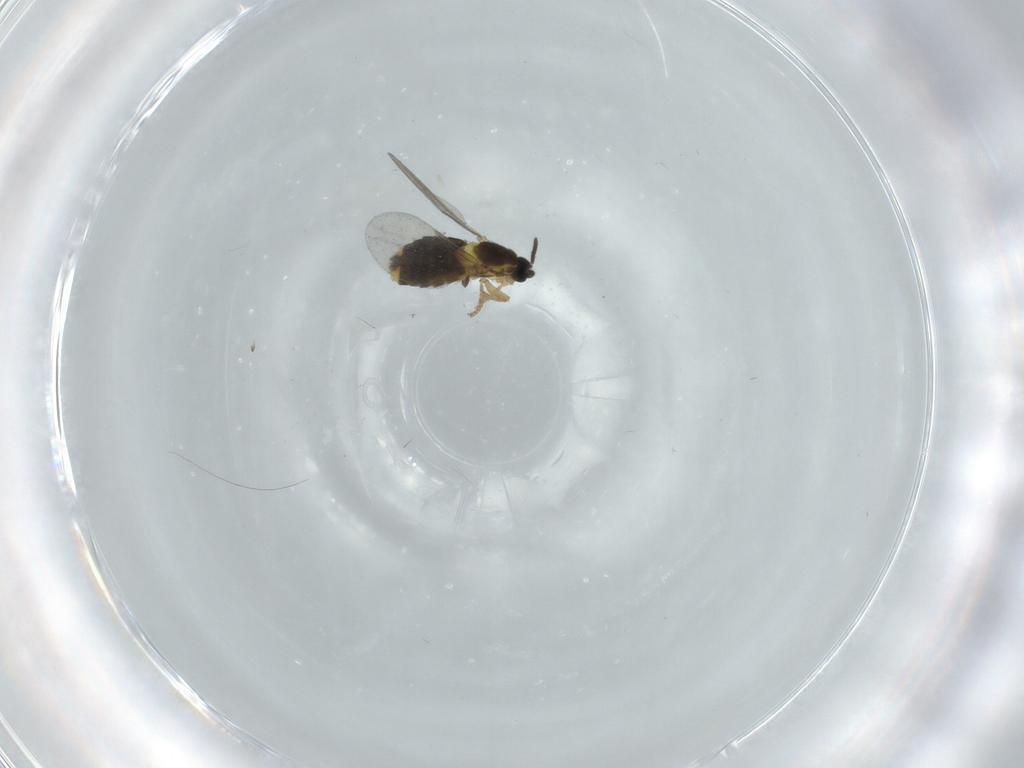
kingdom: Animalia
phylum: Arthropoda
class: Insecta
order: Diptera
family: Scatopsidae
